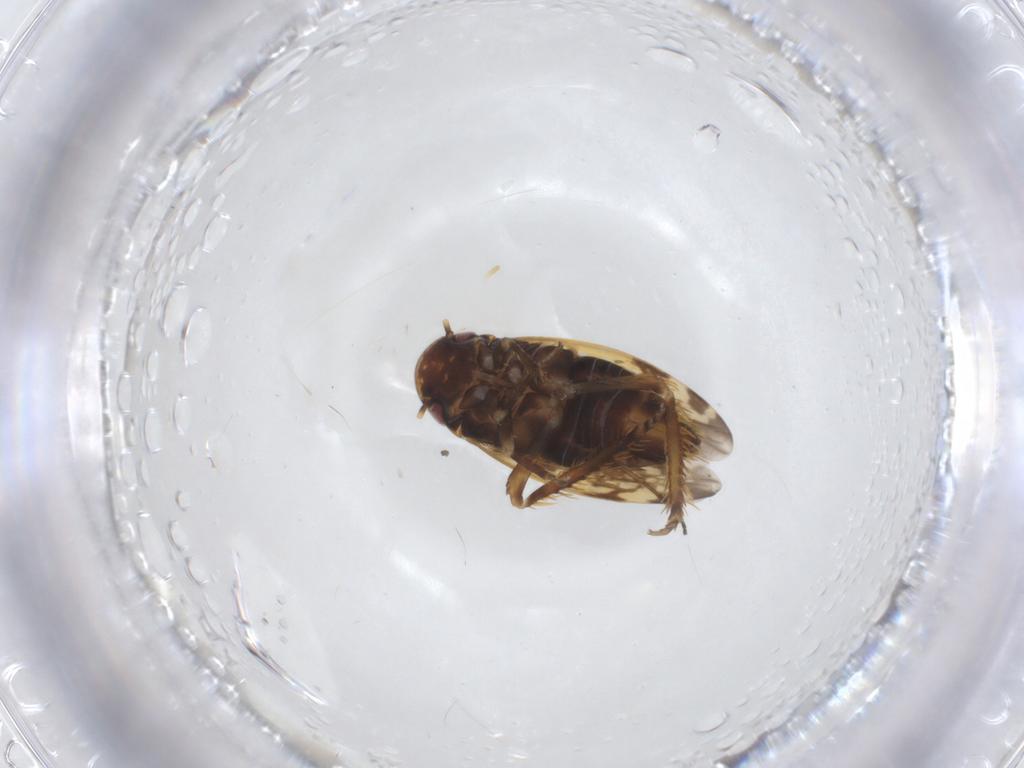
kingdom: Animalia
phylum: Arthropoda
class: Insecta
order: Hemiptera
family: Cicadellidae
